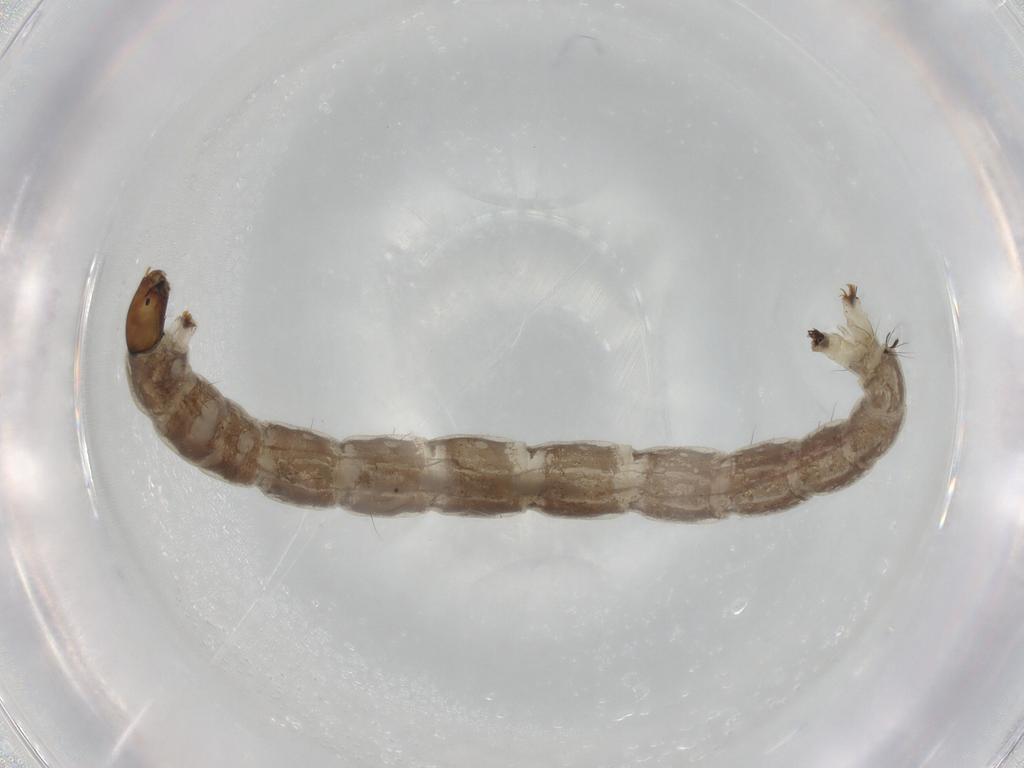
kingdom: Animalia
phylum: Arthropoda
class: Insecta
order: Diptera
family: Chironomidae
